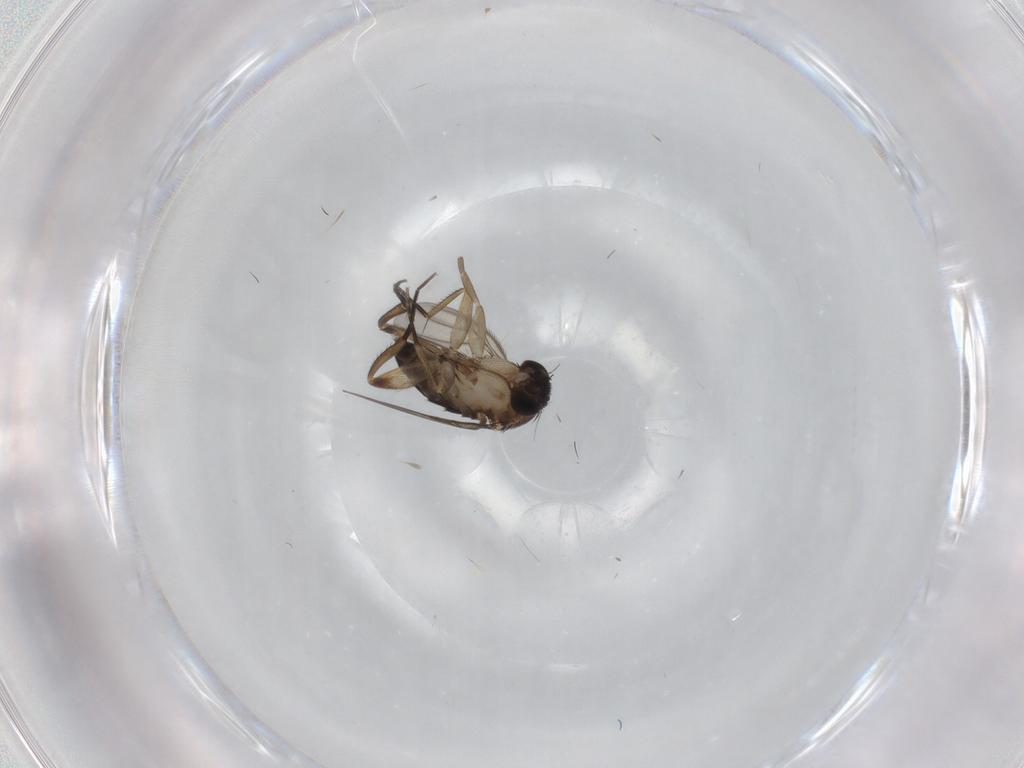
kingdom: Animalia
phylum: Arthropoda
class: Insecta
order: Diptera
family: Phoridae
